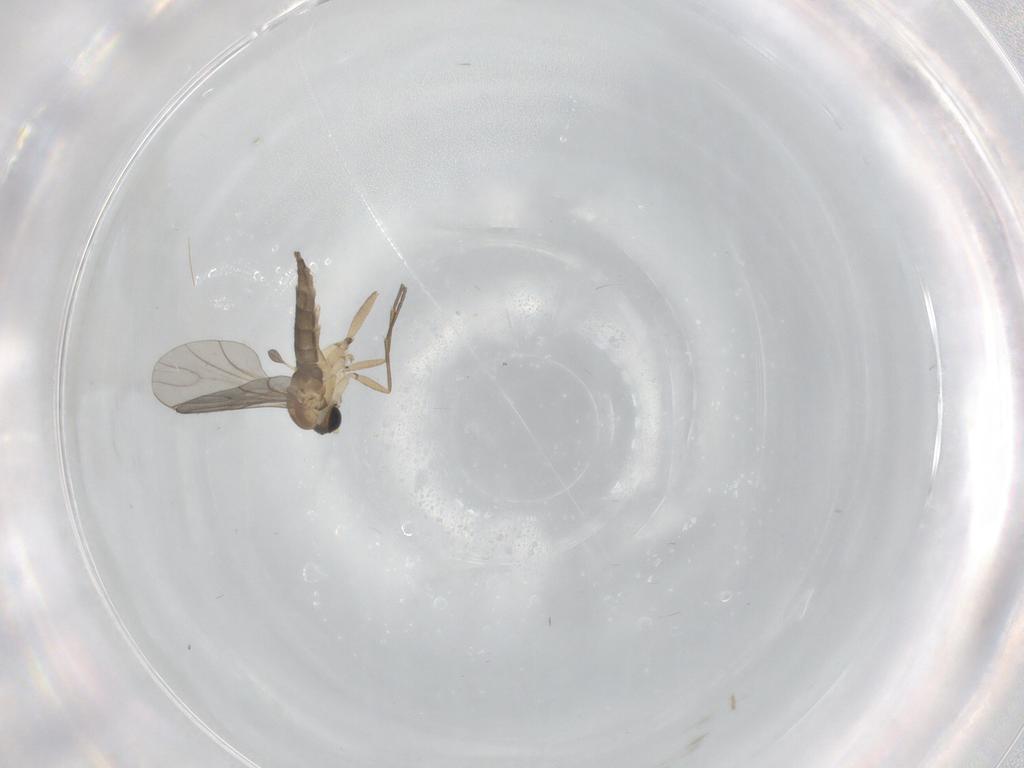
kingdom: Animalia
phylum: Arthropoda
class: Insecta
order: Diptera
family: Sciaridae
